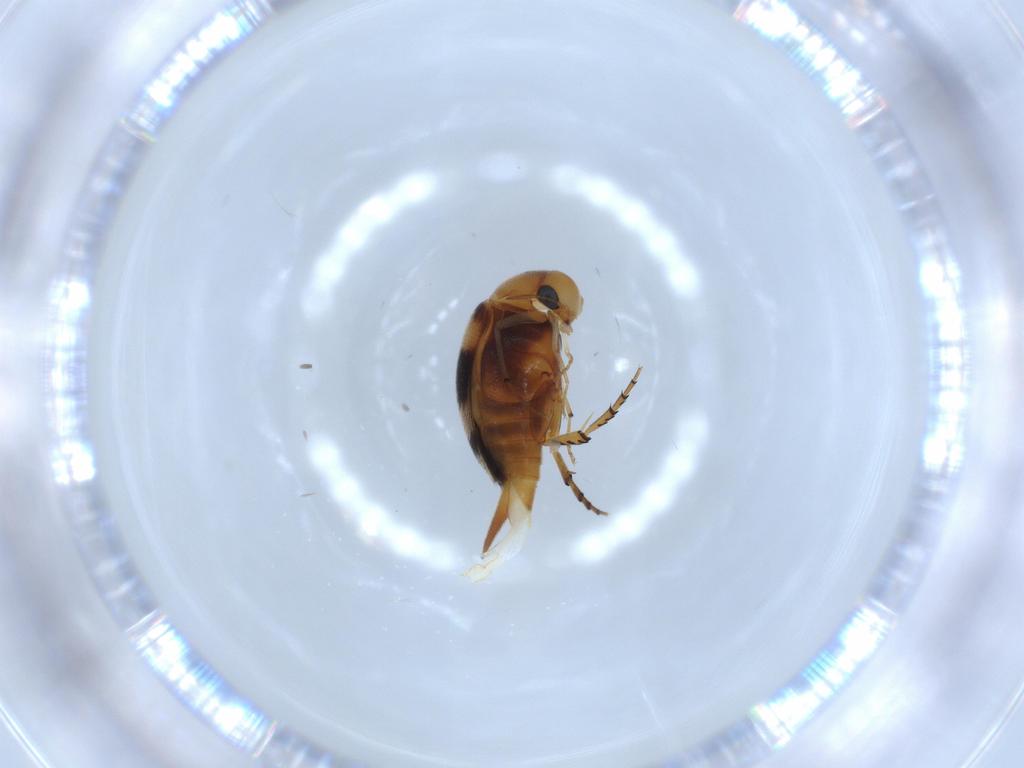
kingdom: Animalia
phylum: Arthropoda
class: Insecta
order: Coleoptera
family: Mordellidae
